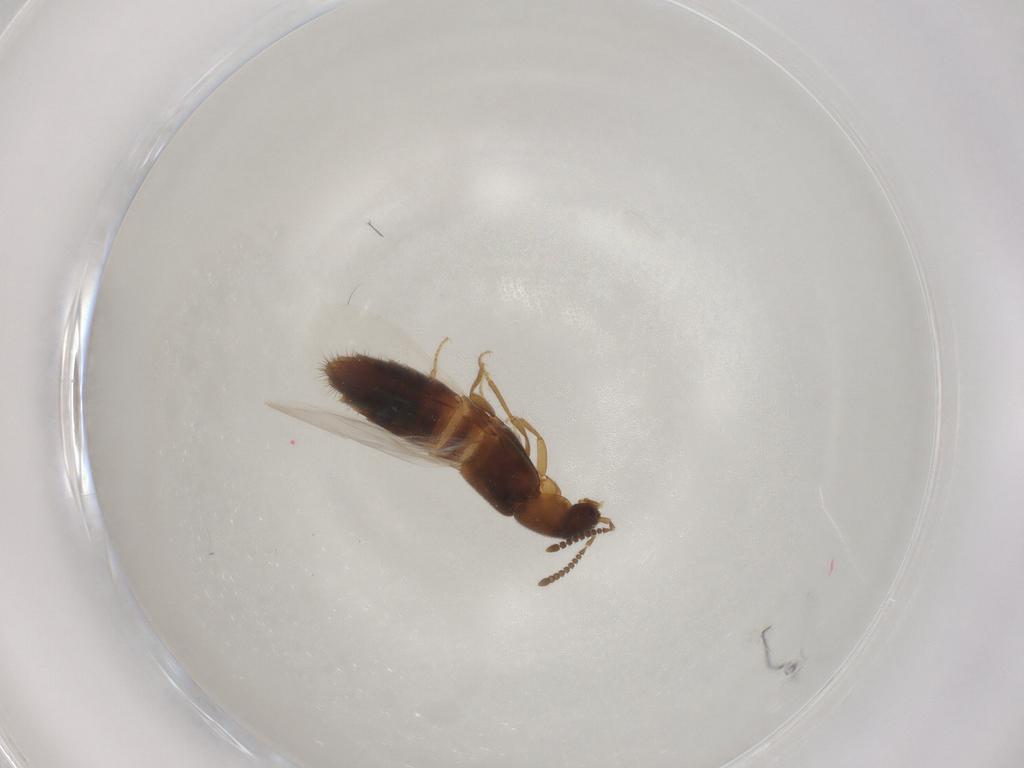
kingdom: Animalia
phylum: Arthropoda
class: Insecta
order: Coleoptera
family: Staphylinidae
